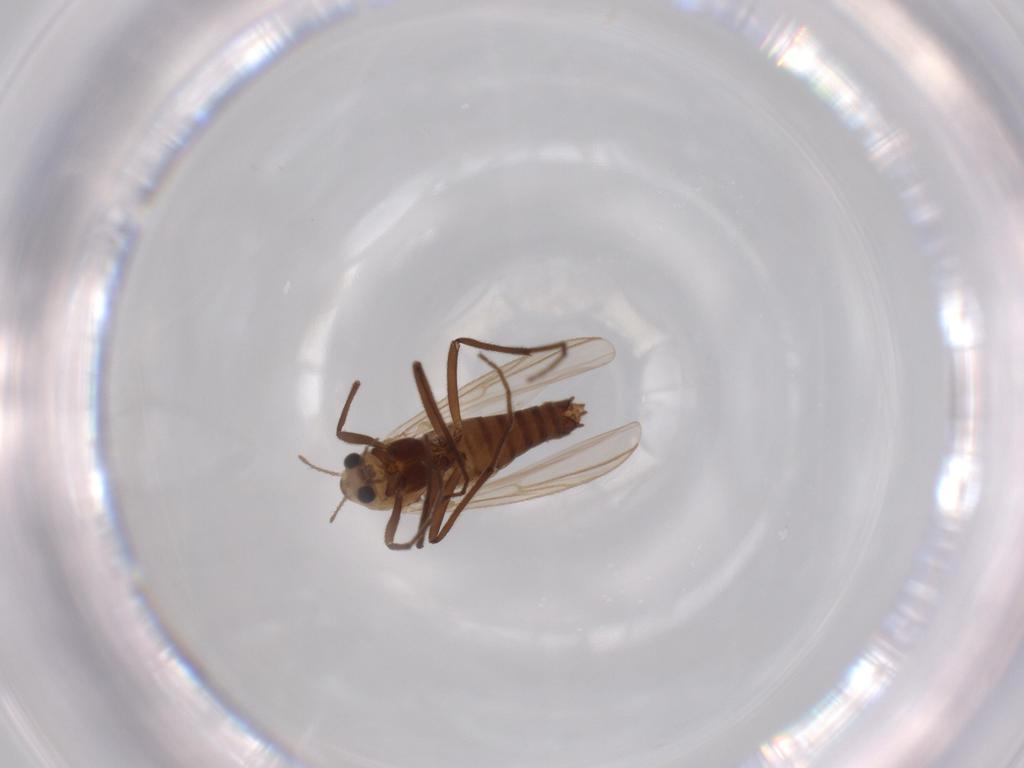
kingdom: Animalia
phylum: Arthropoda
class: Insecta
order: Diptera
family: Chironomidae
